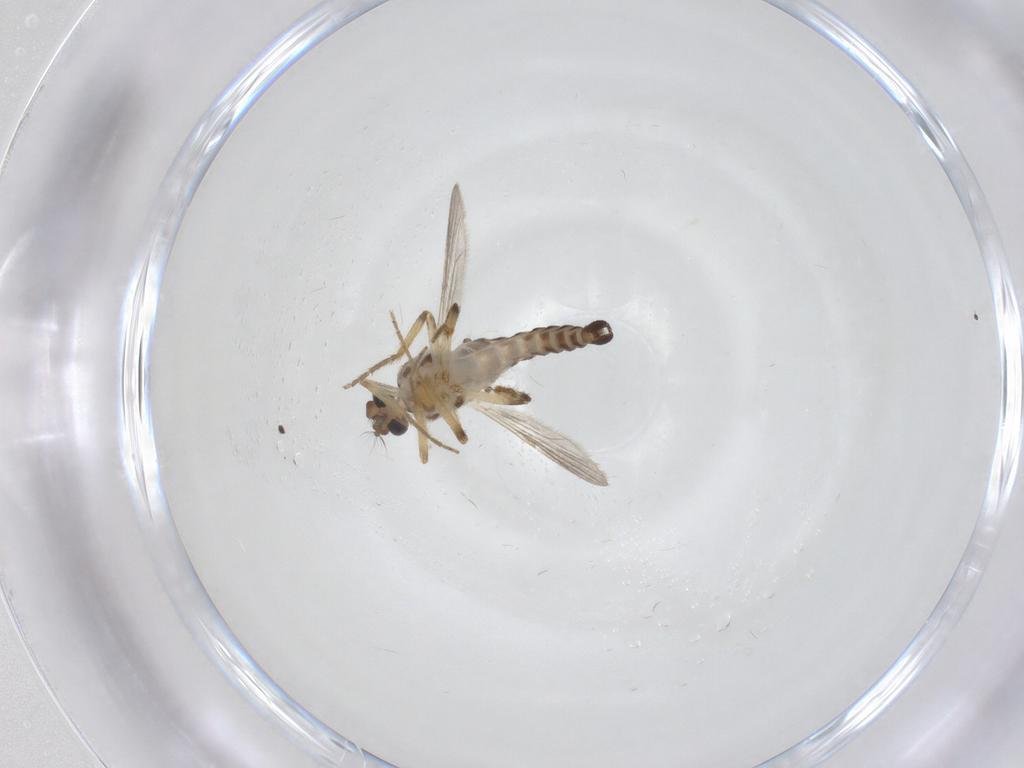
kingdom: Animalia
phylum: Arthropoda
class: Insecta
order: Diptera
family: Ceratopogonidae
